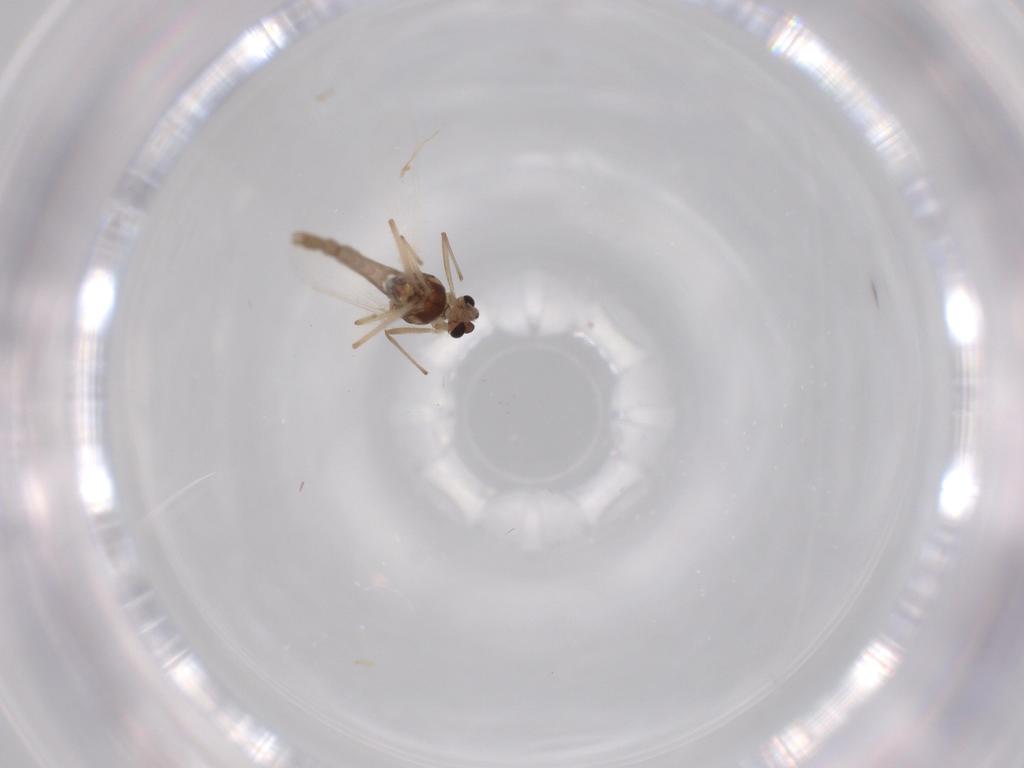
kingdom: Animalia
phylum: Arthropoda
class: Insecta
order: Diptera
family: Chironomidae
